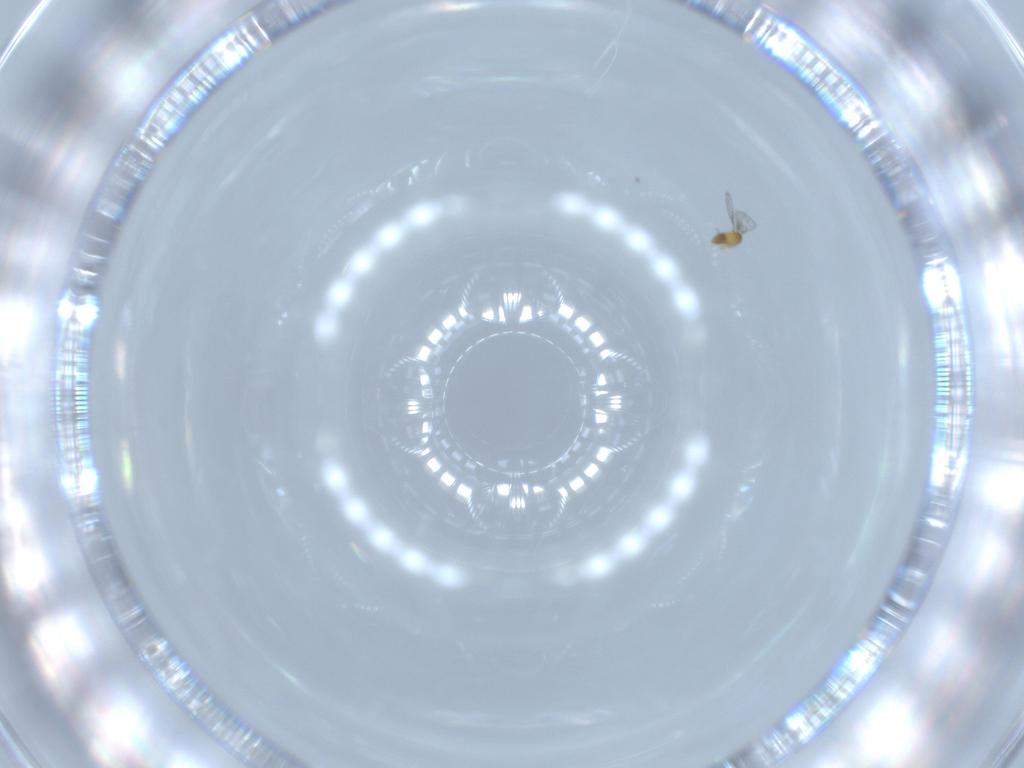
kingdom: Animalia
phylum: Arthropoda
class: Insecta
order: Hymenoptera
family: Trichogrammatidae
